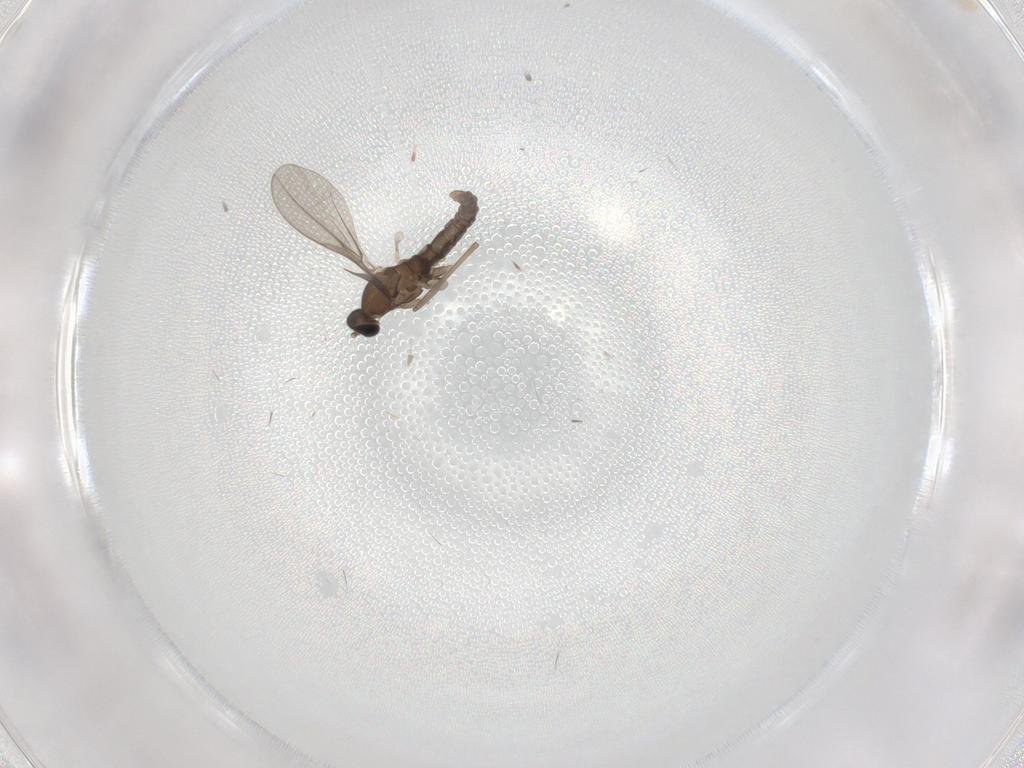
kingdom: Animalia
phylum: Arthropoda
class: Insecta
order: Diptera
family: Cecidomyiidae
